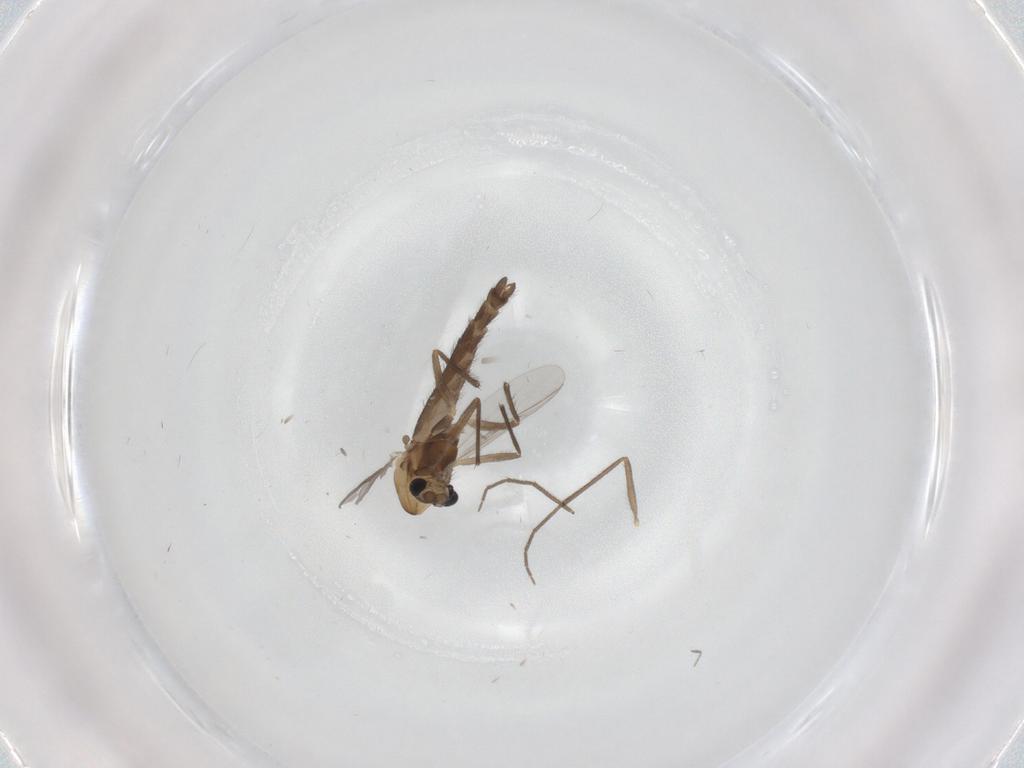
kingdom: Animalia
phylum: Arthropoda
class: Insecta
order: Diptera
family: Chironomidae
